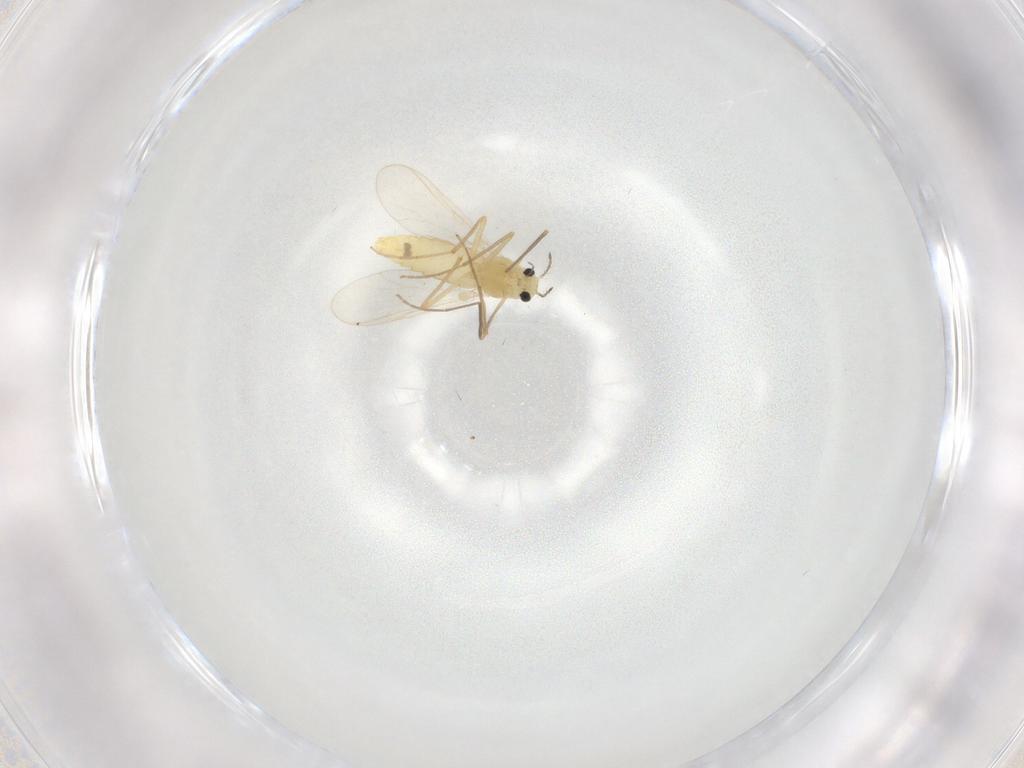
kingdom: Animalia
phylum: Arthropoda
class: Insecta
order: Diptera
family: Chironomidae
